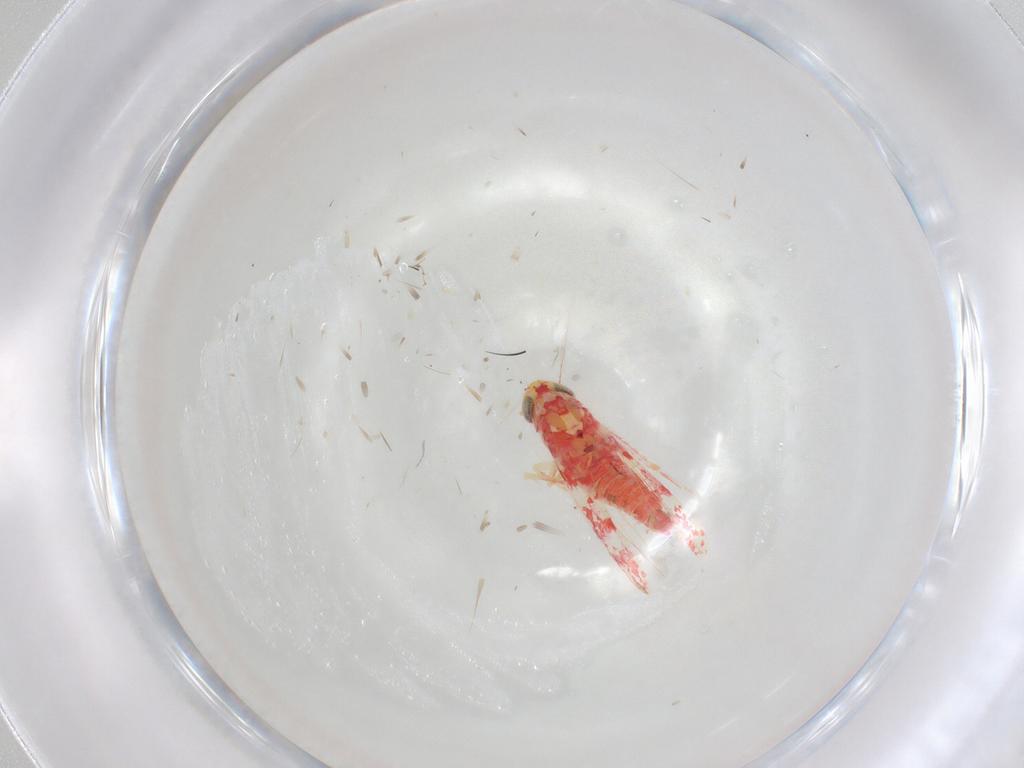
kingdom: Animalia
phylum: Arthropoda
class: Insecta
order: Hemiptera
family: Cicadellidae
